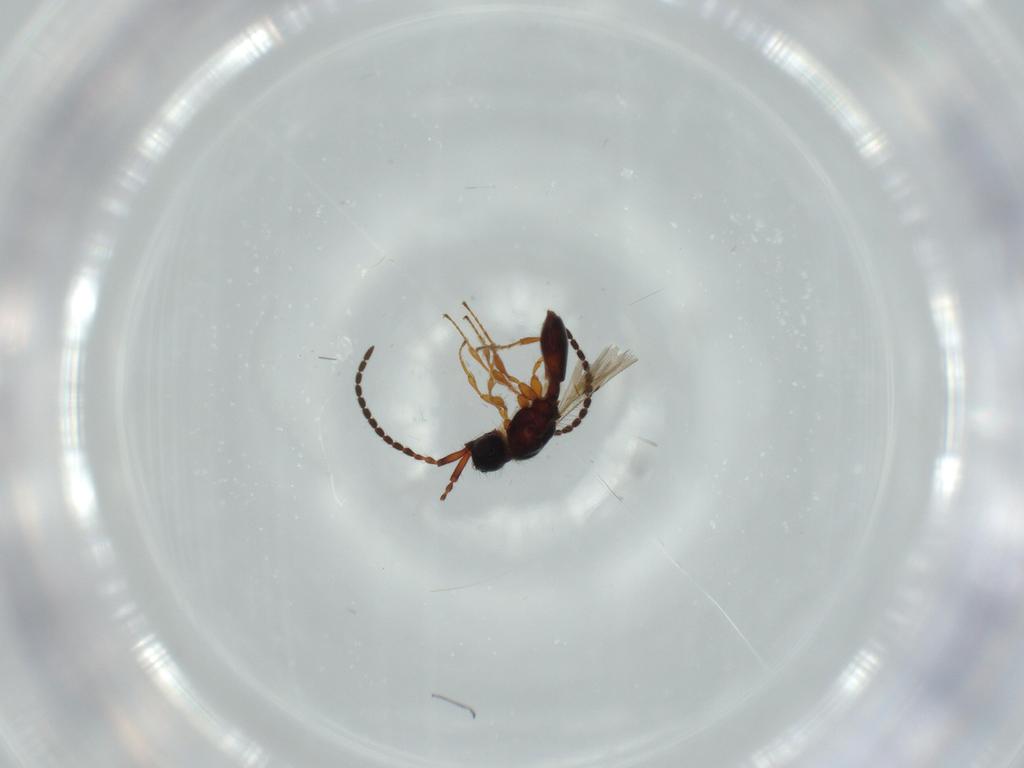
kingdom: Animalia
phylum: Arthropoda
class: Insecta
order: Hymenoptera
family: Diapriidae
